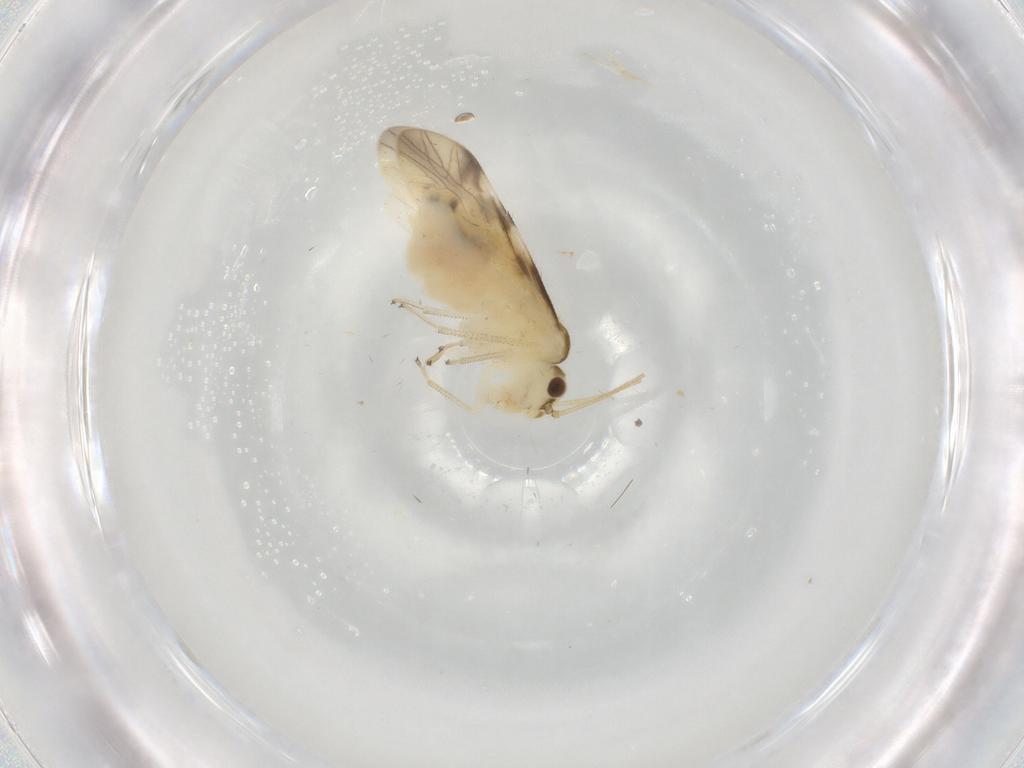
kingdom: Animalia
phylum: Arthropoda
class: Insecta
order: Psocodea
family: Caeciliusidae
